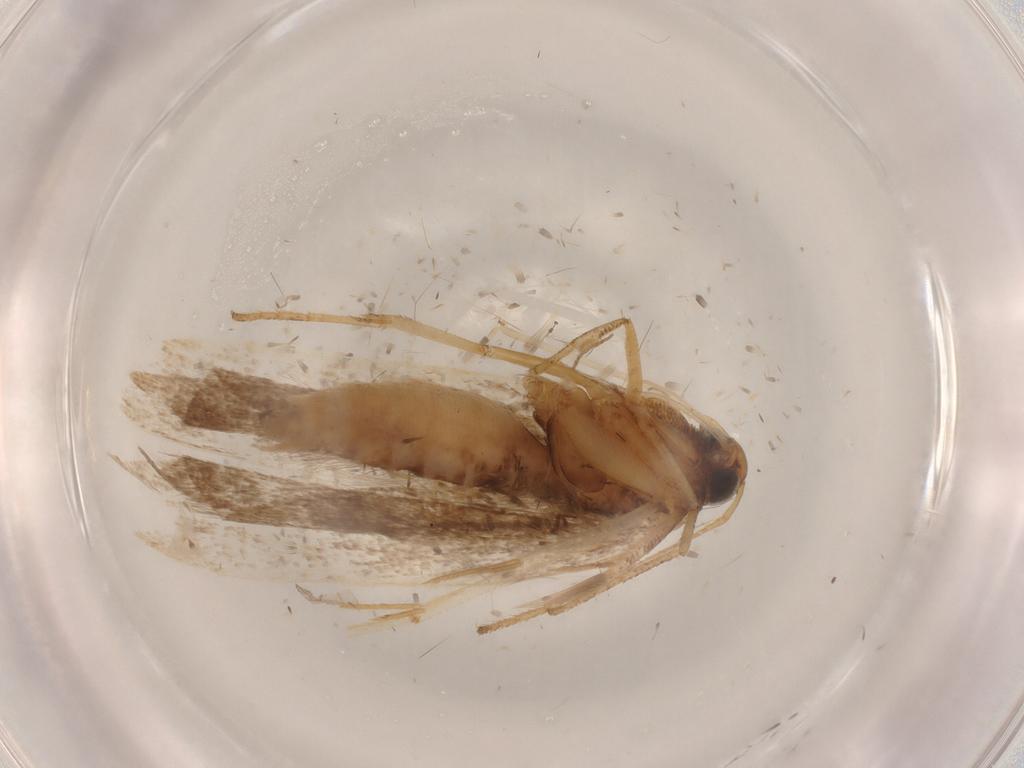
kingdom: Animalia
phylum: Arthropoda
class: Insecta
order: Lepidoptera
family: Gelechiidae
